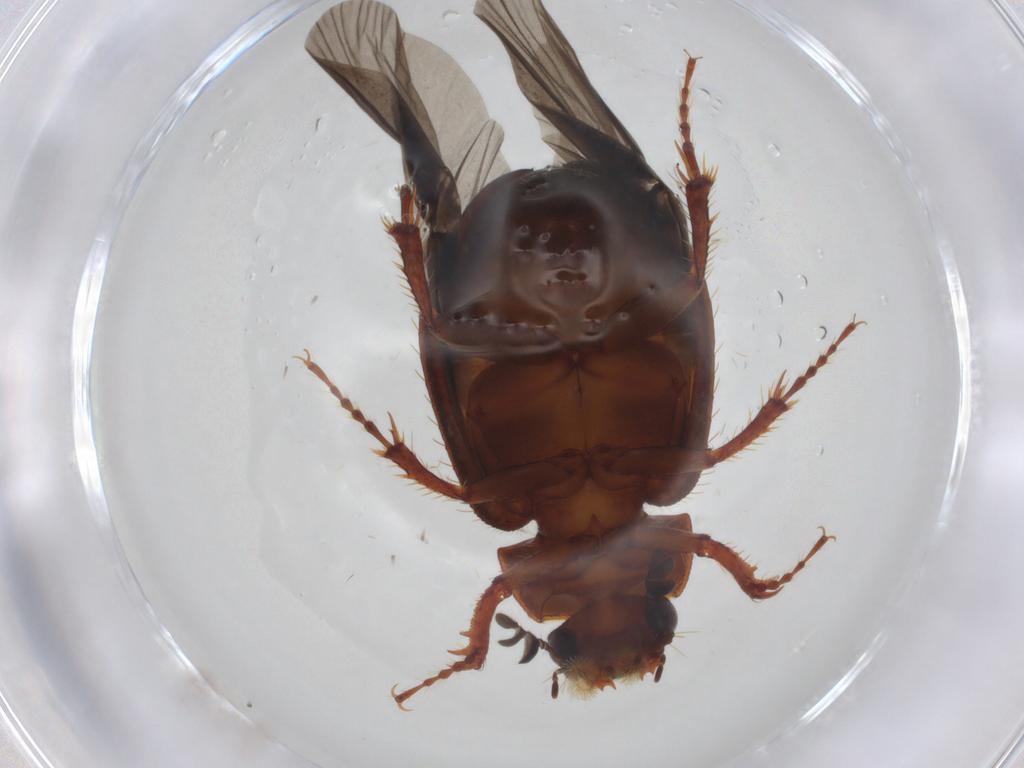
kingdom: Animalia
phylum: Arthropoda
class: Insecta
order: Coleoptera
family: Hybosoridae
